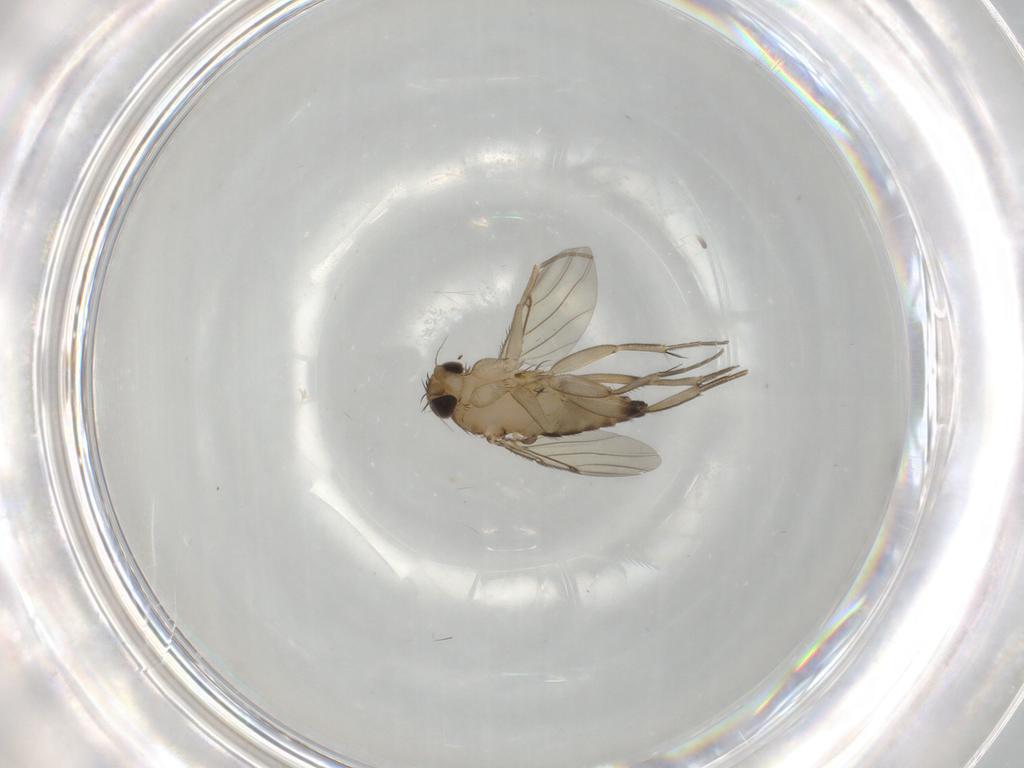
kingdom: Animalia
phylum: Arthropoda
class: Insecta
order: Diptera
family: Phoridae
